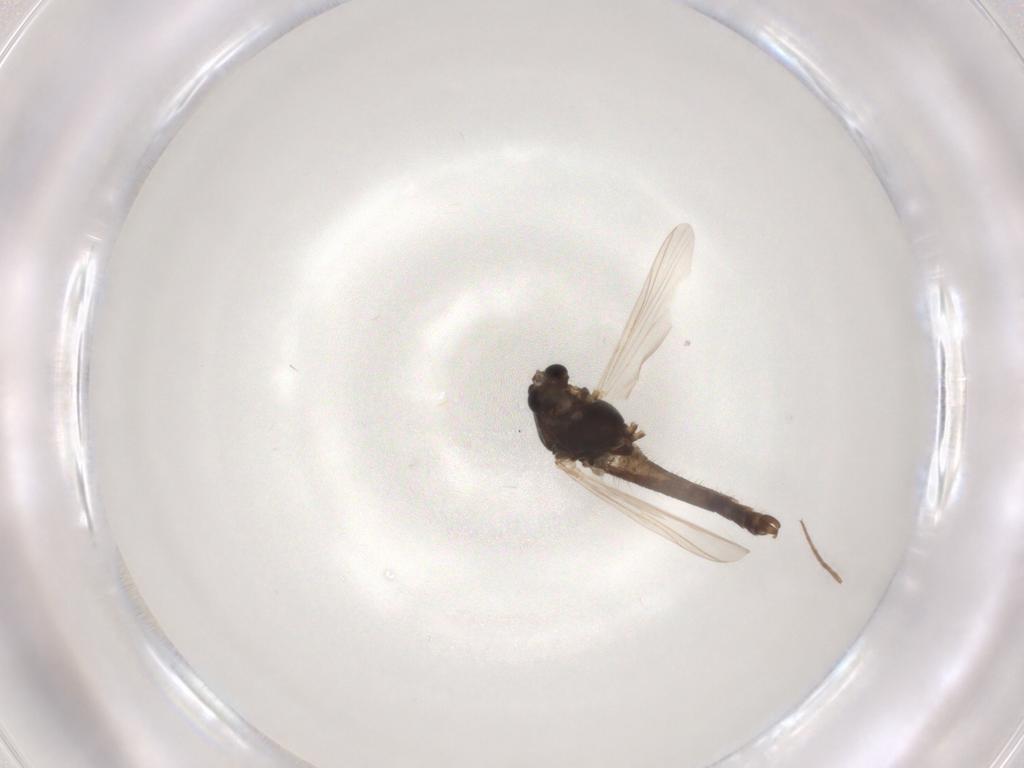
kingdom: Animalia
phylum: Arthropoda
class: Insecta
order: Diptera
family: Chironomidae
